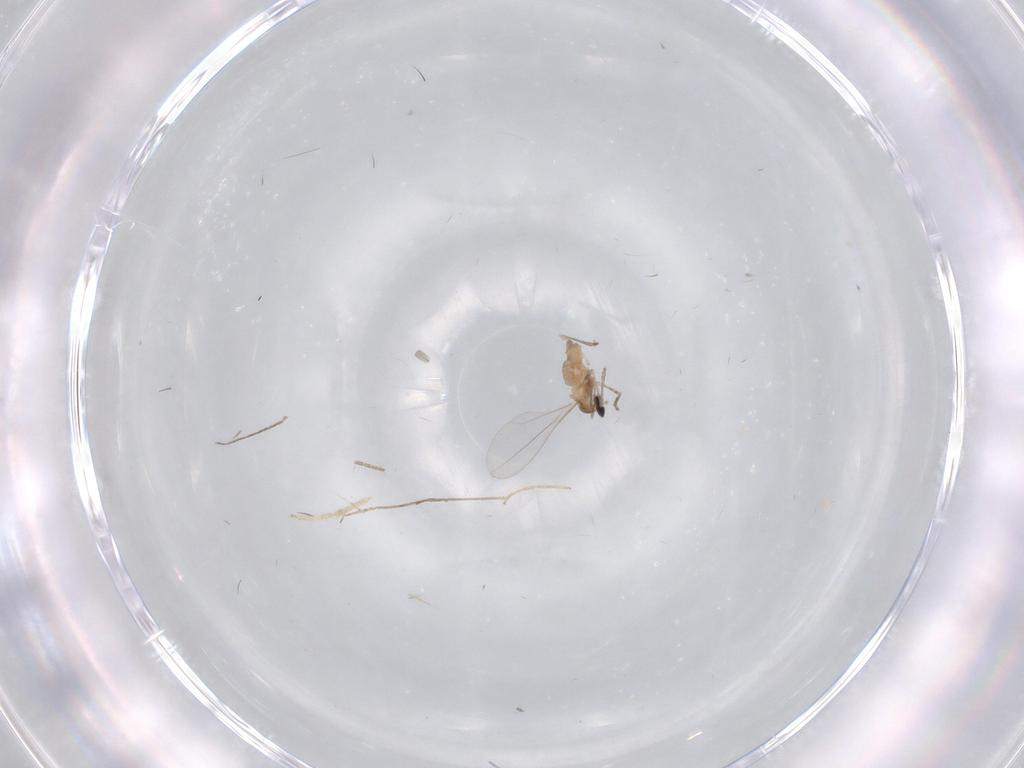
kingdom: Animalia
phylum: Arthropoda
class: Insecta
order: Diptera
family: Chironomidae
